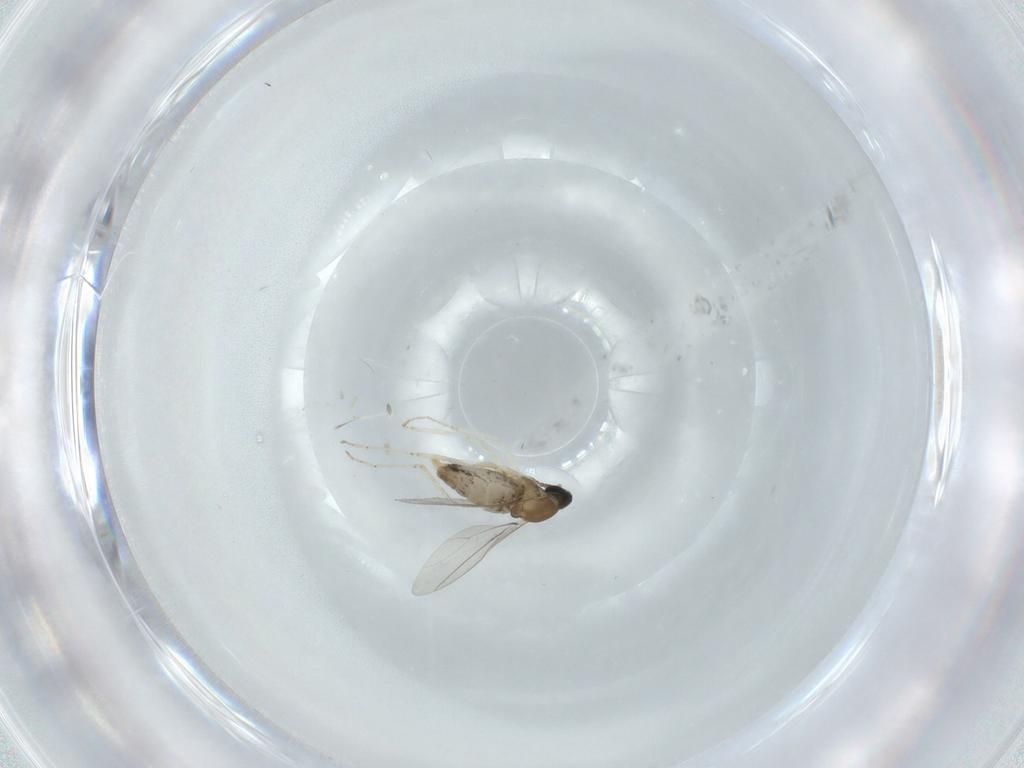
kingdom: Animalia
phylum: Arthropoda
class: Insecta
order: Diptera
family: Cecidomyiidae
